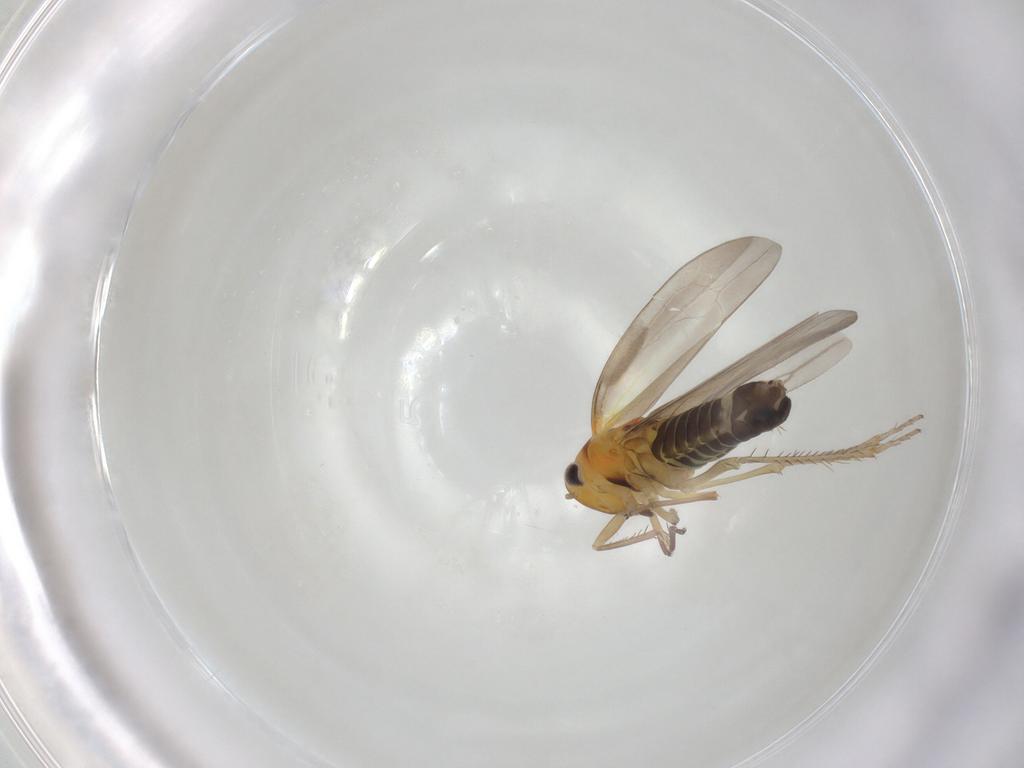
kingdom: Animalia
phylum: Arthropoda
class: Insecta
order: Hemiptera
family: Cicadellidae
